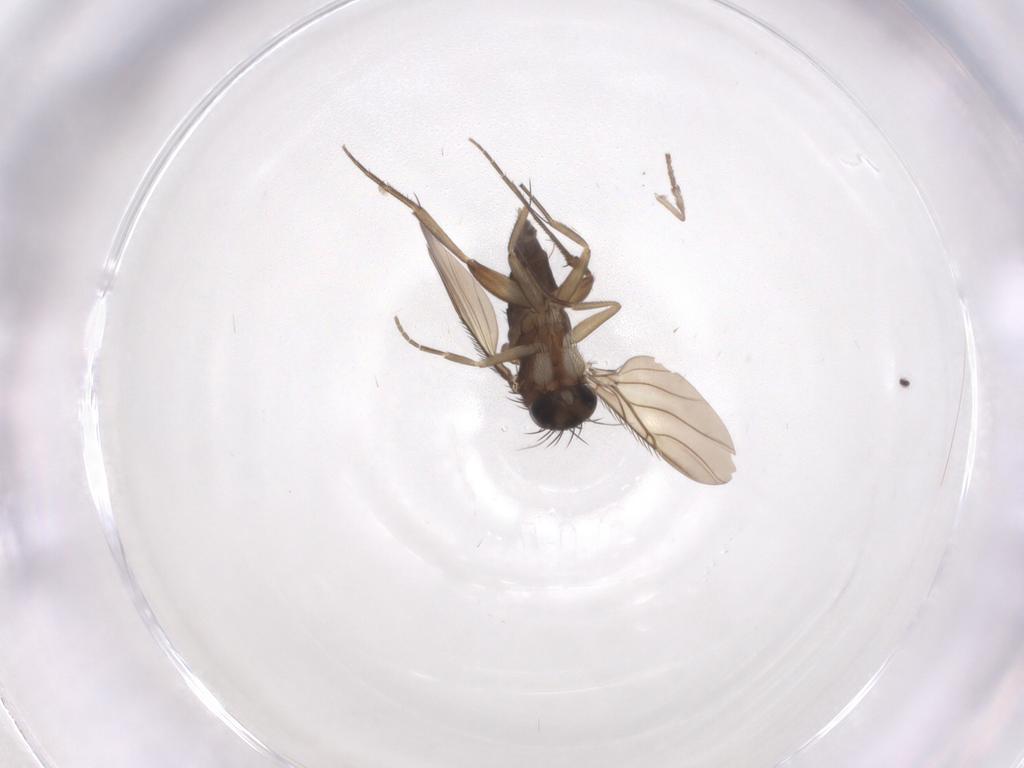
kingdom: Animalia
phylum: Arthropoda
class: Insecta
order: Diptera
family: Phoridae
